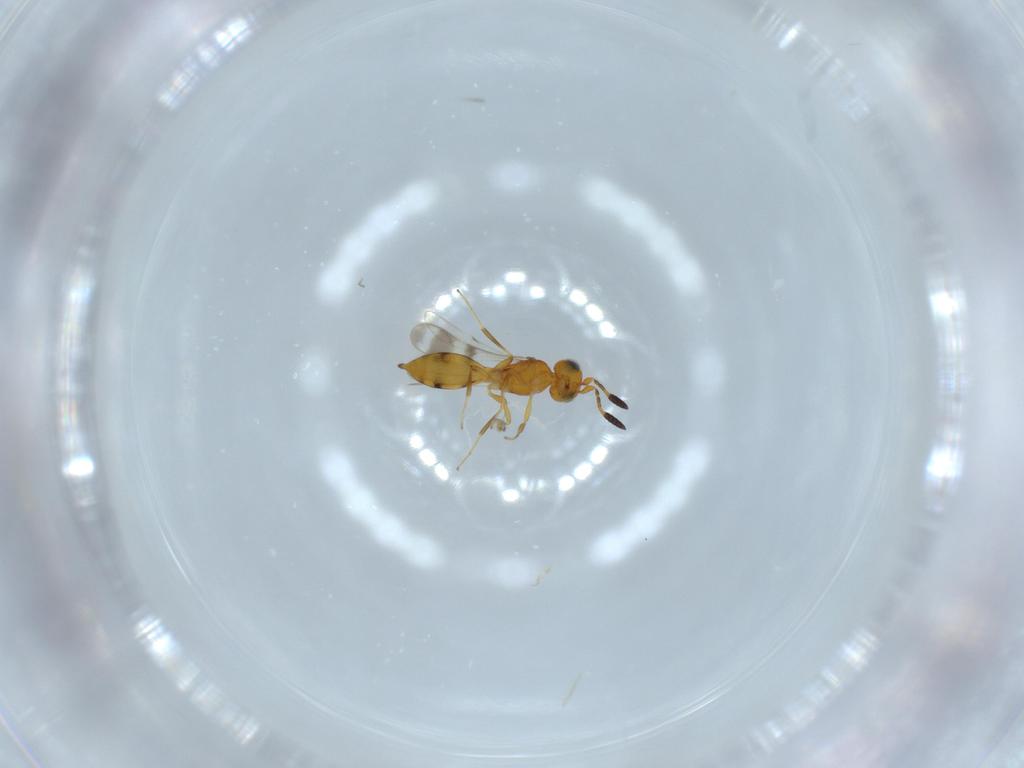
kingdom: Animalia
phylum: Arthropoda
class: Insecta
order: Hymenoptera
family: Scelionidae
